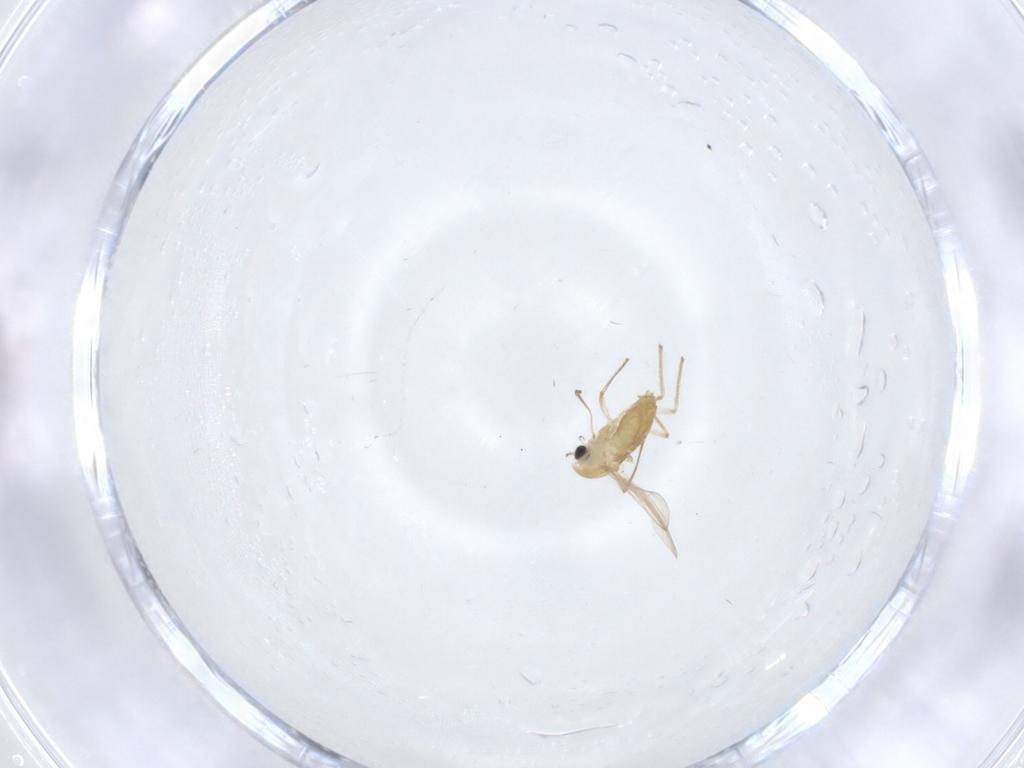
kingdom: Animalia
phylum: Arthropoda
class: Insecta
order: Diptera
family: Chironomidae
